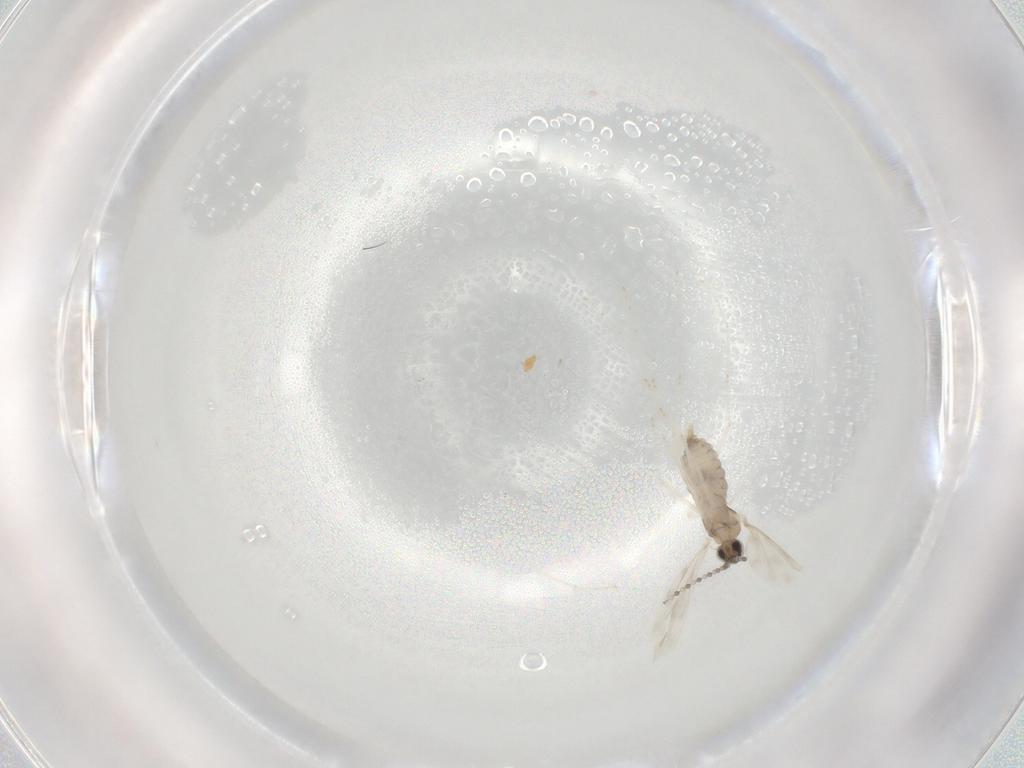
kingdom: Animalia
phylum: Arthropoda
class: Insecta
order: Diptera
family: Cecidomyiidae
